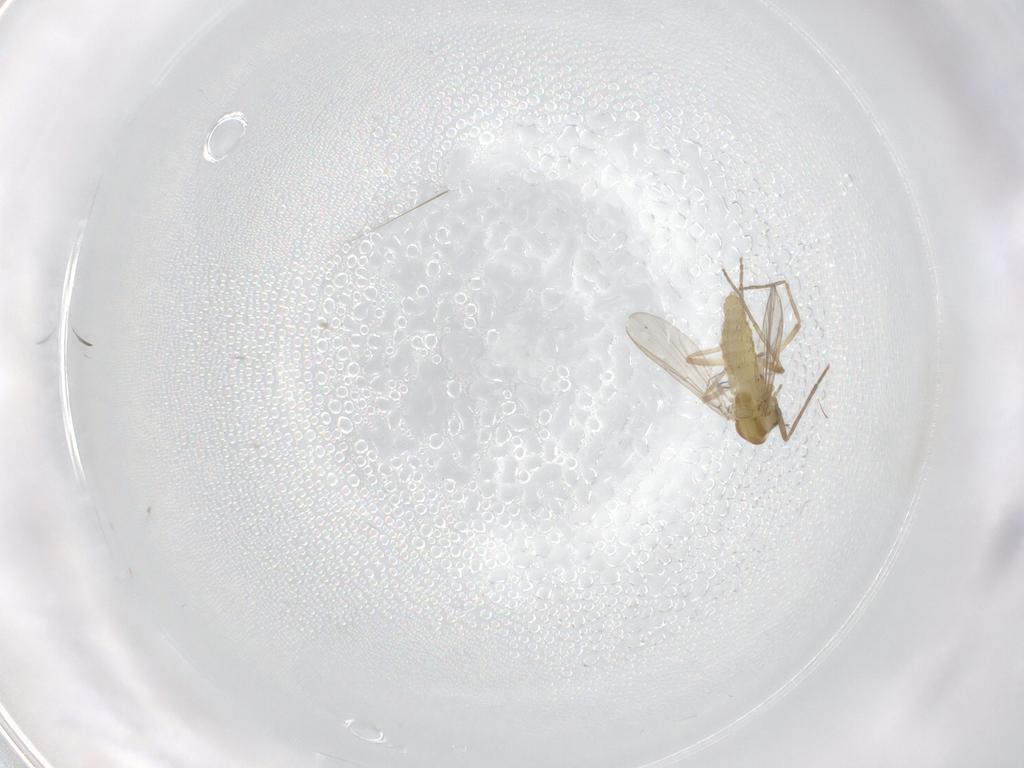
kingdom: Animalia
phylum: Arthropoda
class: Insecta
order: Diptera
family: Chironomidae
